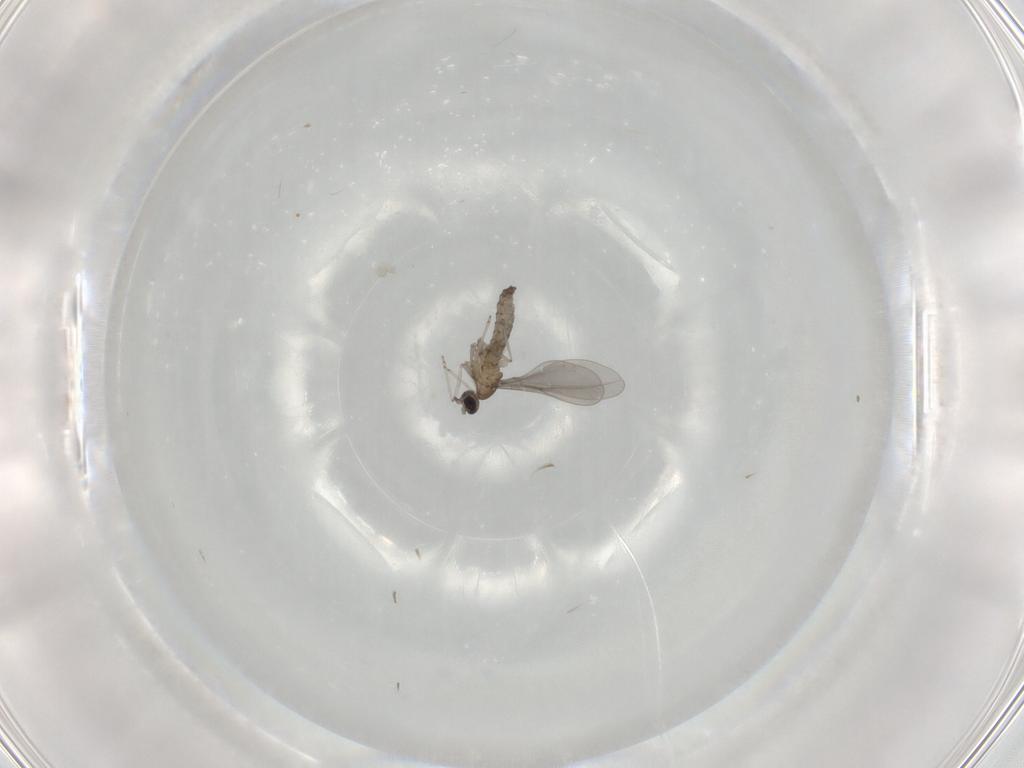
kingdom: Animalia
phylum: Arthropoda
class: Insecta
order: Diptera
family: Chironomidae
